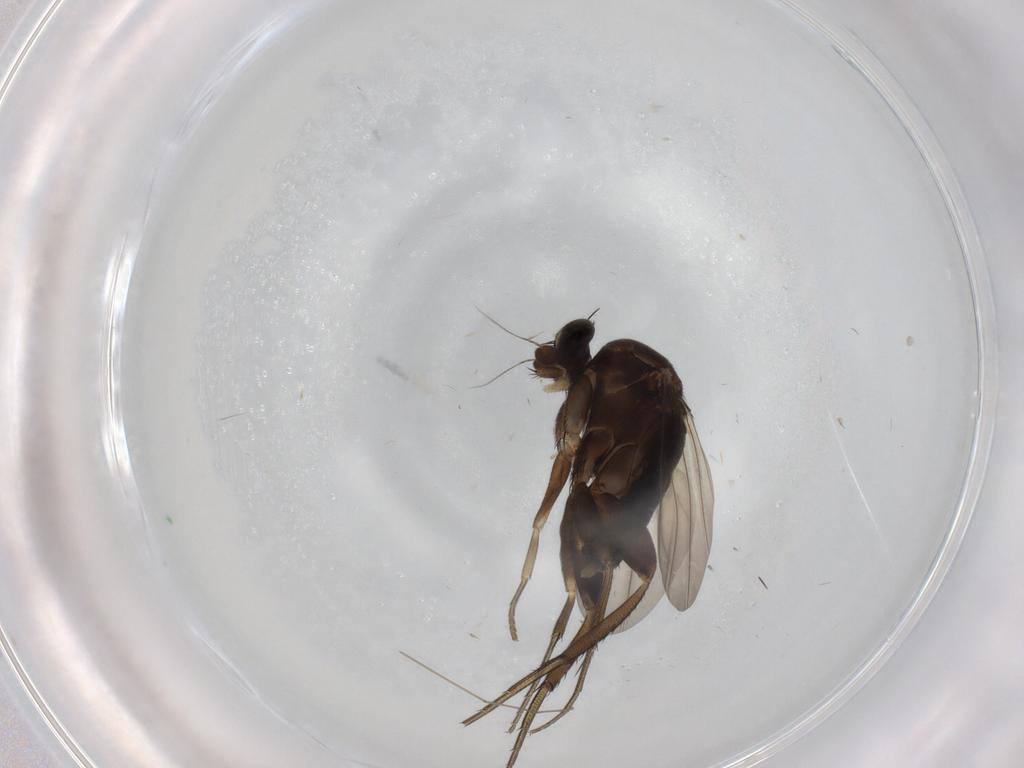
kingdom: Animalia
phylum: Arthropoda
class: Insecta
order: Diptera
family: Phoridae
